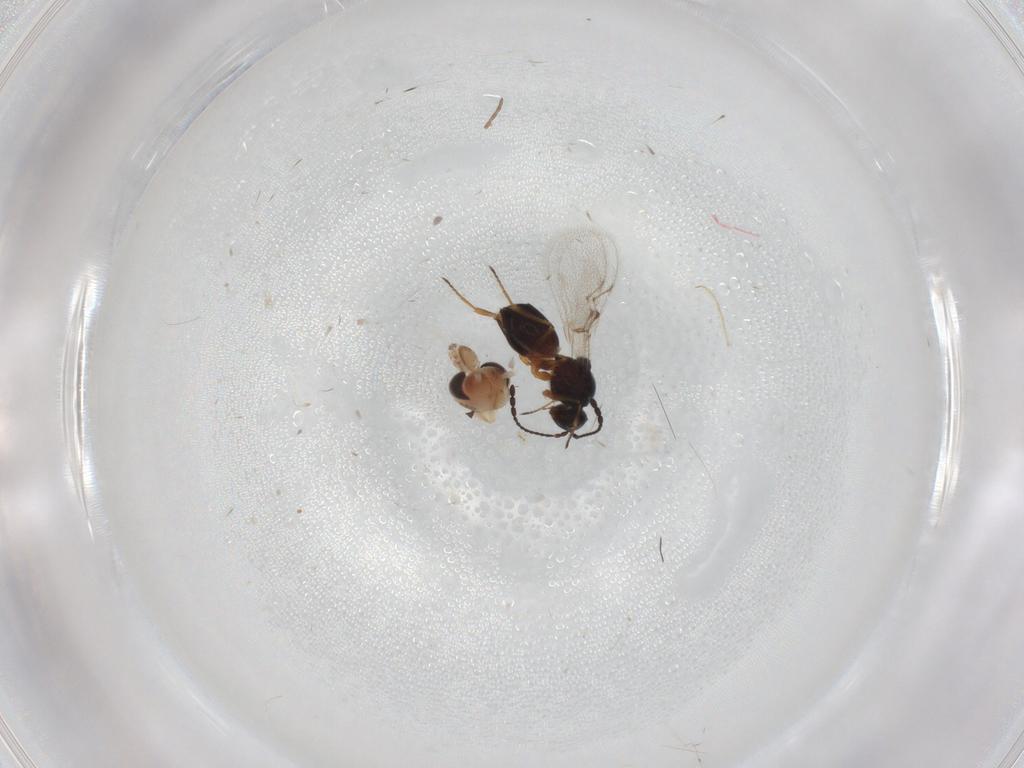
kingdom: Animalia
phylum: Arthropoda
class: Insecta
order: Hymenoptera
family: Figitidae
